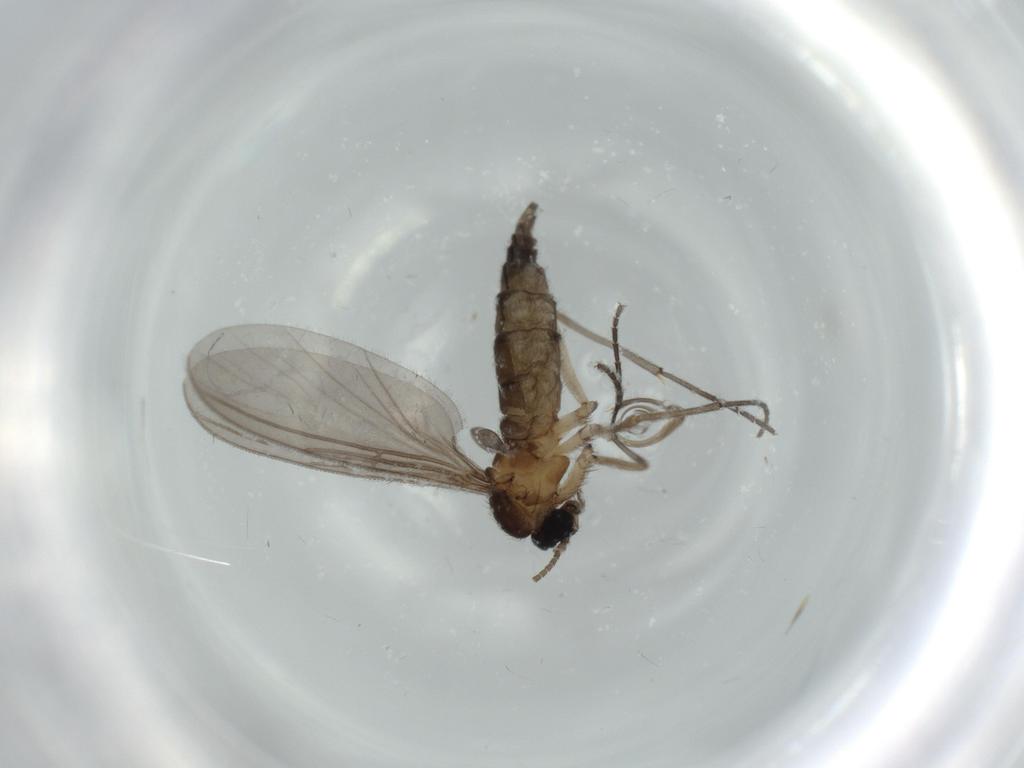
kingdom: Animalia
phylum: Arthropoda
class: Insecta
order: Diptera
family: Sciaridae
